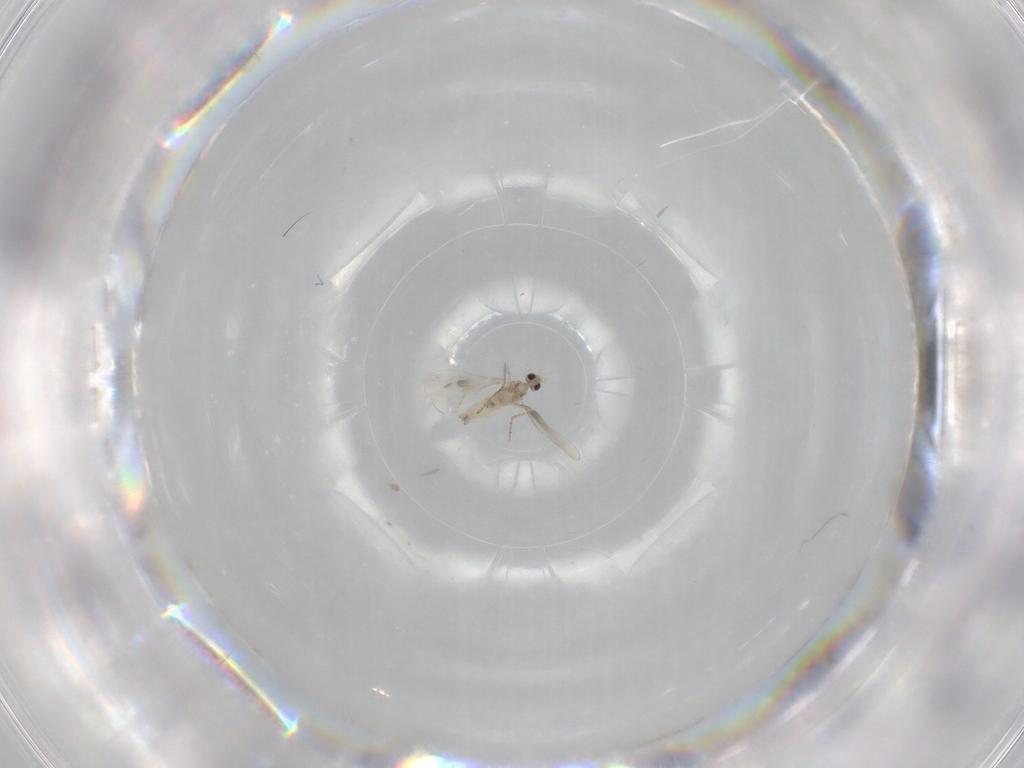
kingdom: Animalia
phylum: Arthropoda
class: Insecta
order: Diptera
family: Cecidomyiidae
